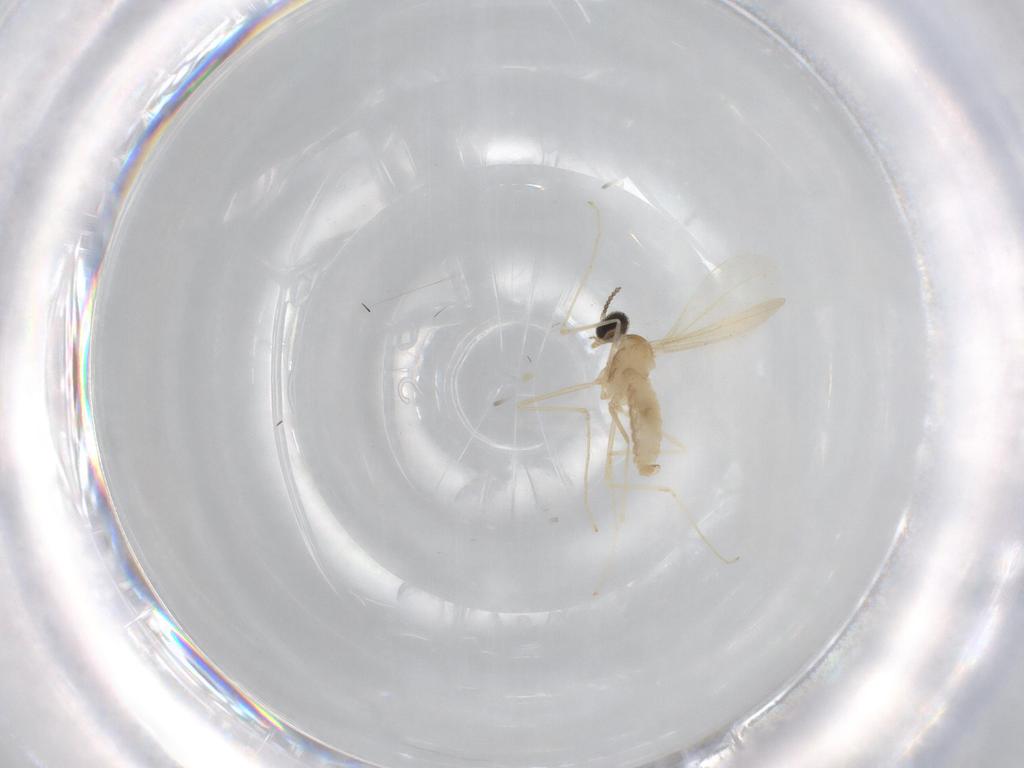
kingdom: Animalia
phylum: Arthropoda
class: Insecta
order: Diptera
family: Cecidomyiidae
